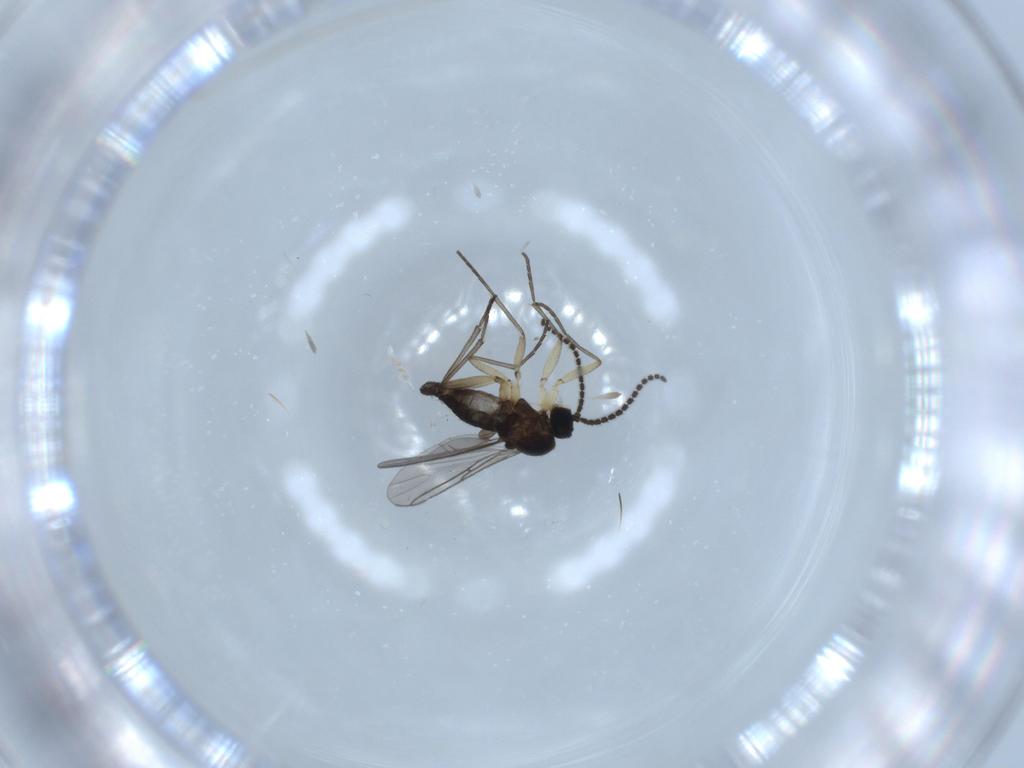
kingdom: Animalia
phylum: Arthropoda
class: Insecta
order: Diptera
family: Sciaridae
